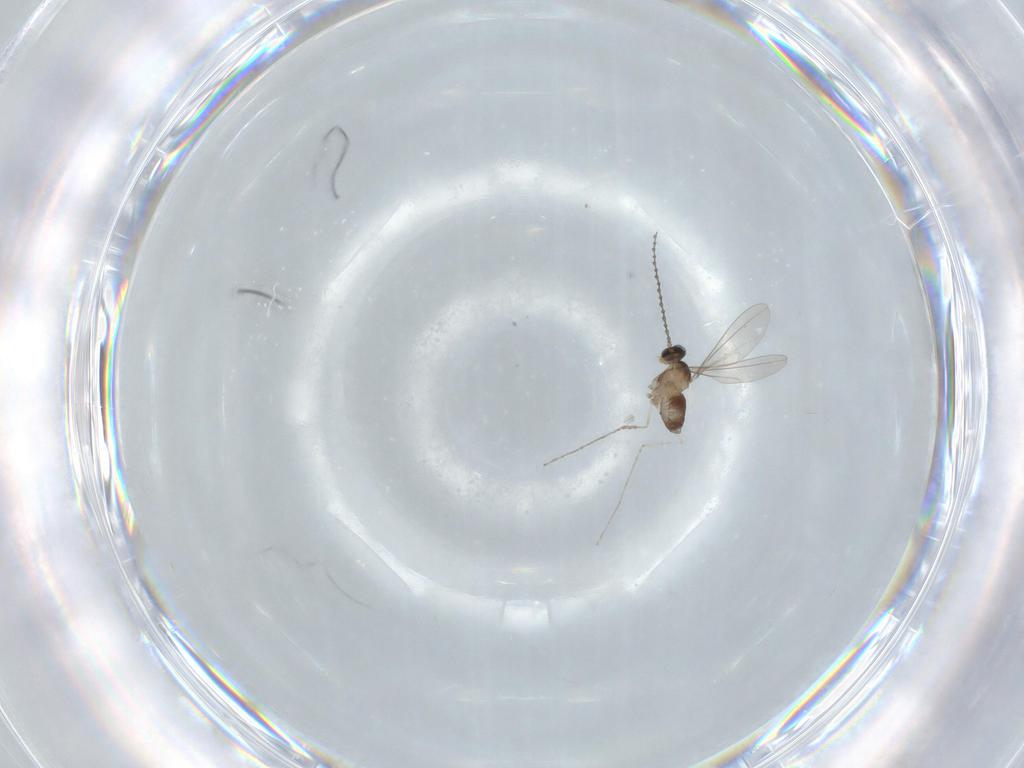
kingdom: Animalia
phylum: Arthropoda
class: Insecta
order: Diptera
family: Cecidomyiidae
